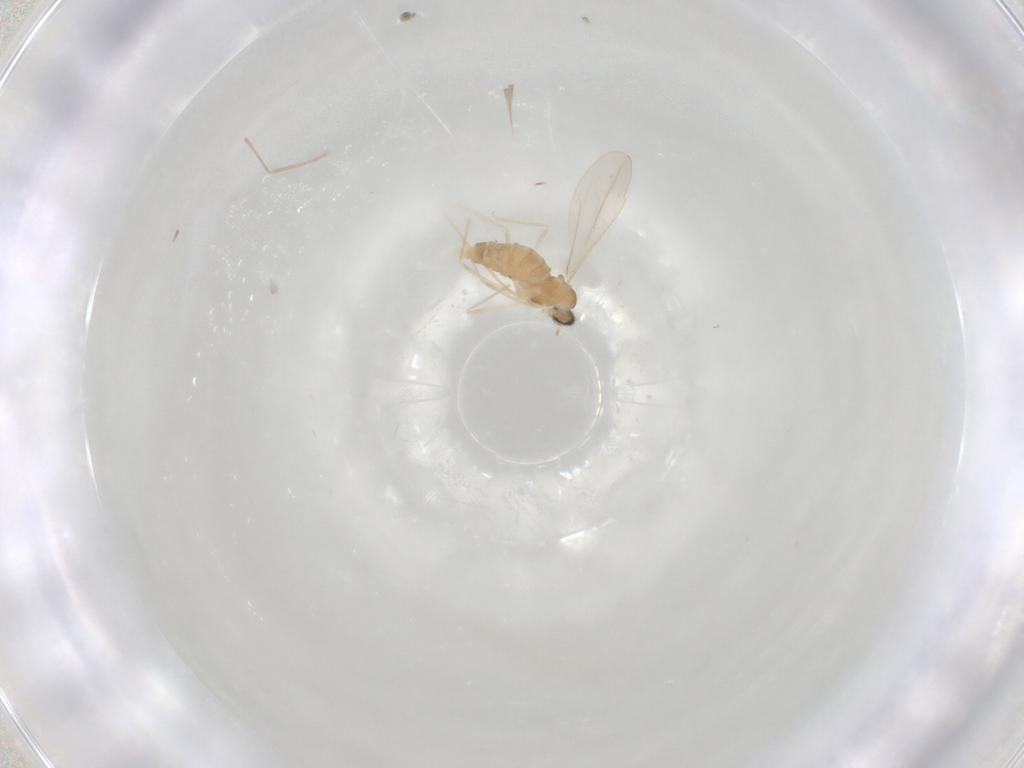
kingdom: Animalia
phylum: Arthropoda
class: Insecta
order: Diptera
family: Cecidomyiidae
